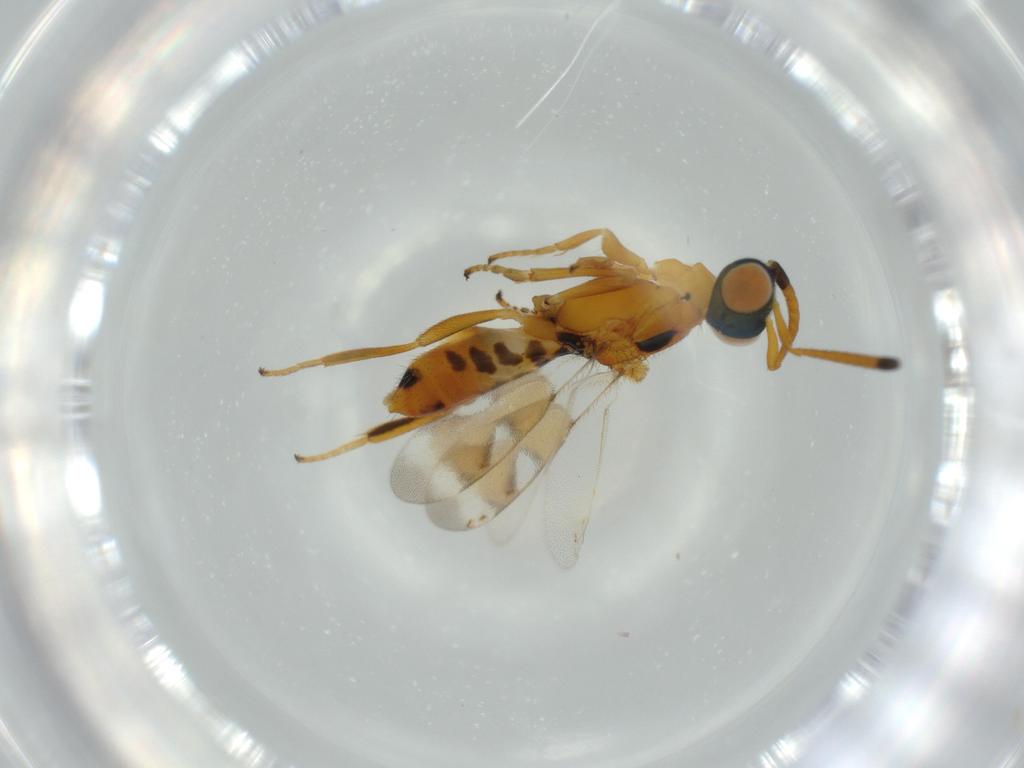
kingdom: Animalia
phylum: Arthropoda
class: Insecta
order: Hymenoptera
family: Eupelmidae
